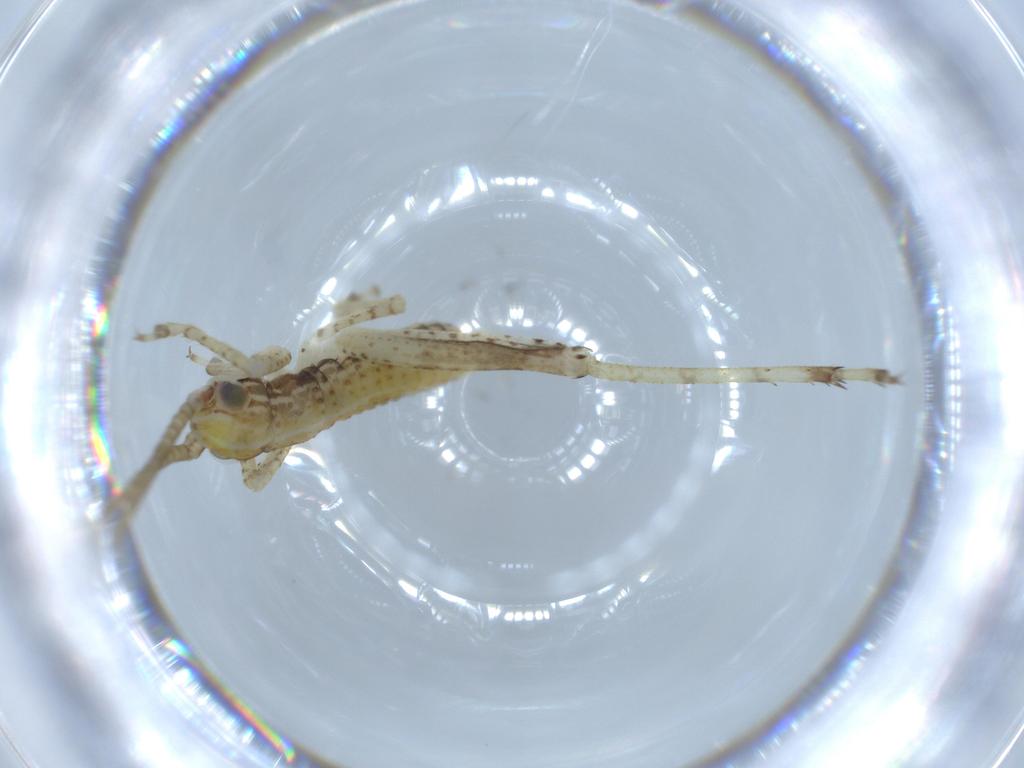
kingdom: Animalia
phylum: Arthropoda
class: Insecta
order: Orthoptera
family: Gryllidae
